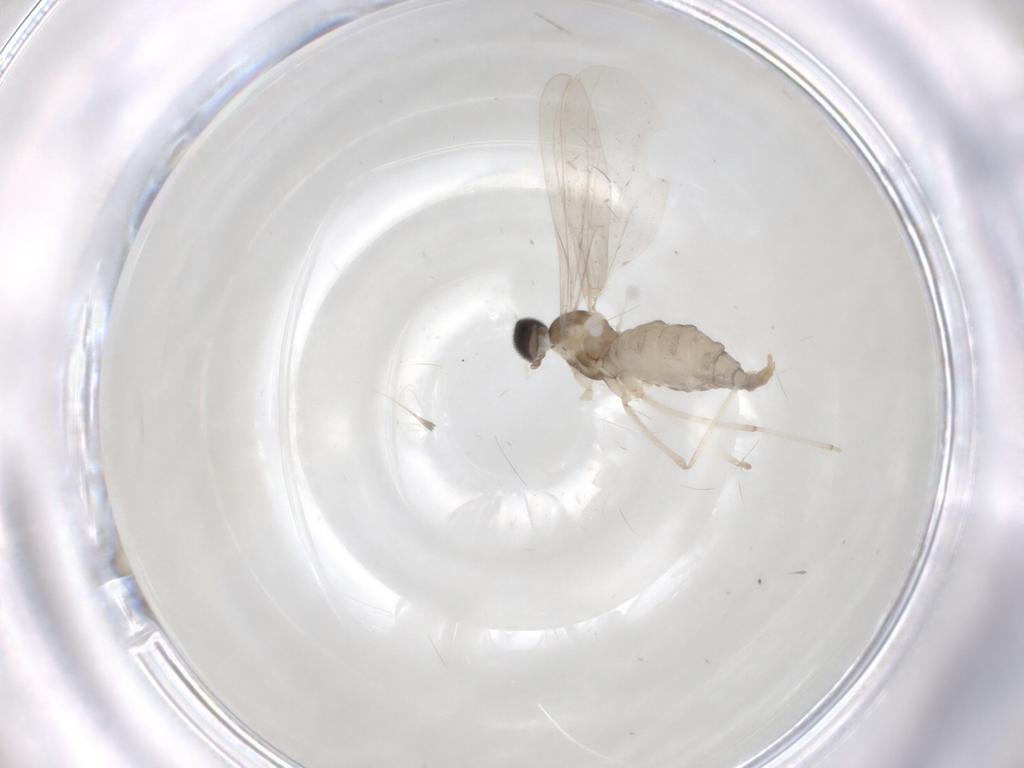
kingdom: Animalia
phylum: Arthropoda
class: Insecta
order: Diptera
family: Cecidomyiidae
